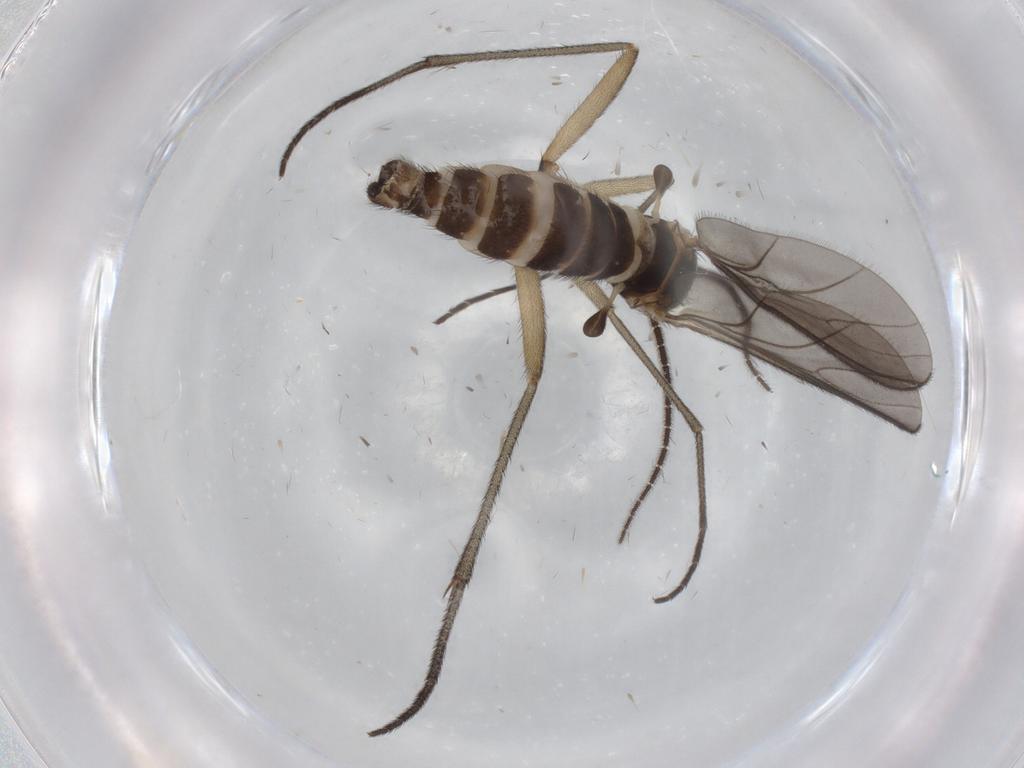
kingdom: Animalia
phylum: Arthropoda
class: Insecta
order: Diptera
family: Sciaridae
